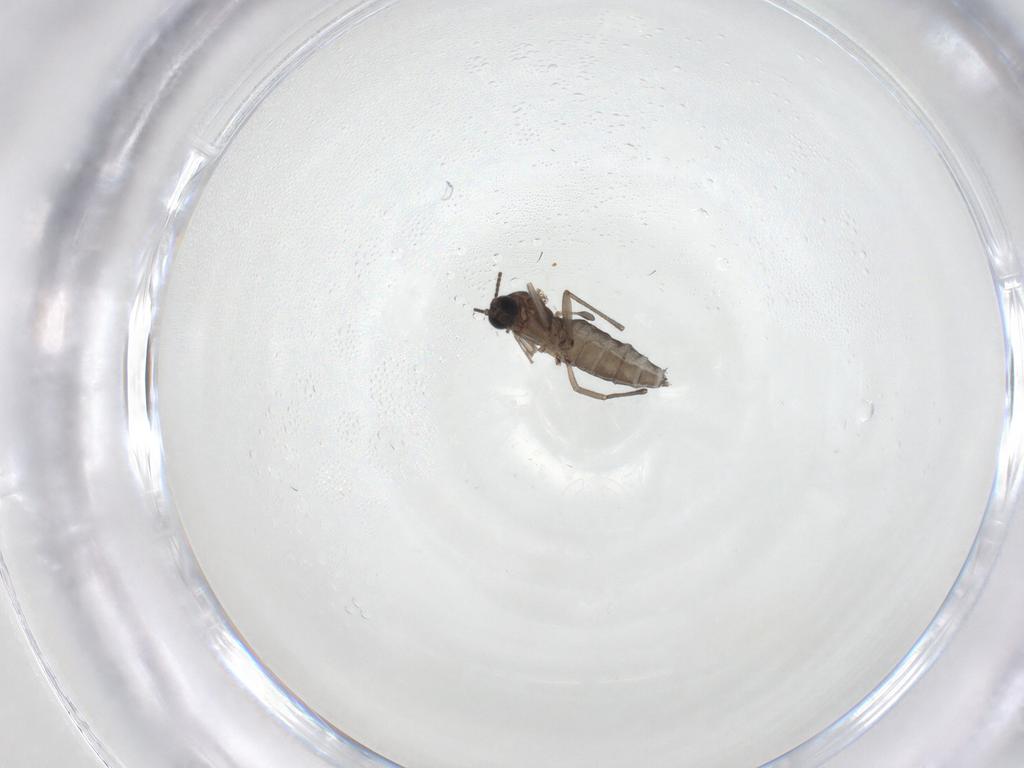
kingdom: Animalia
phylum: Arthropoda
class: Insecta
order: Diptera
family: Sciaridae
